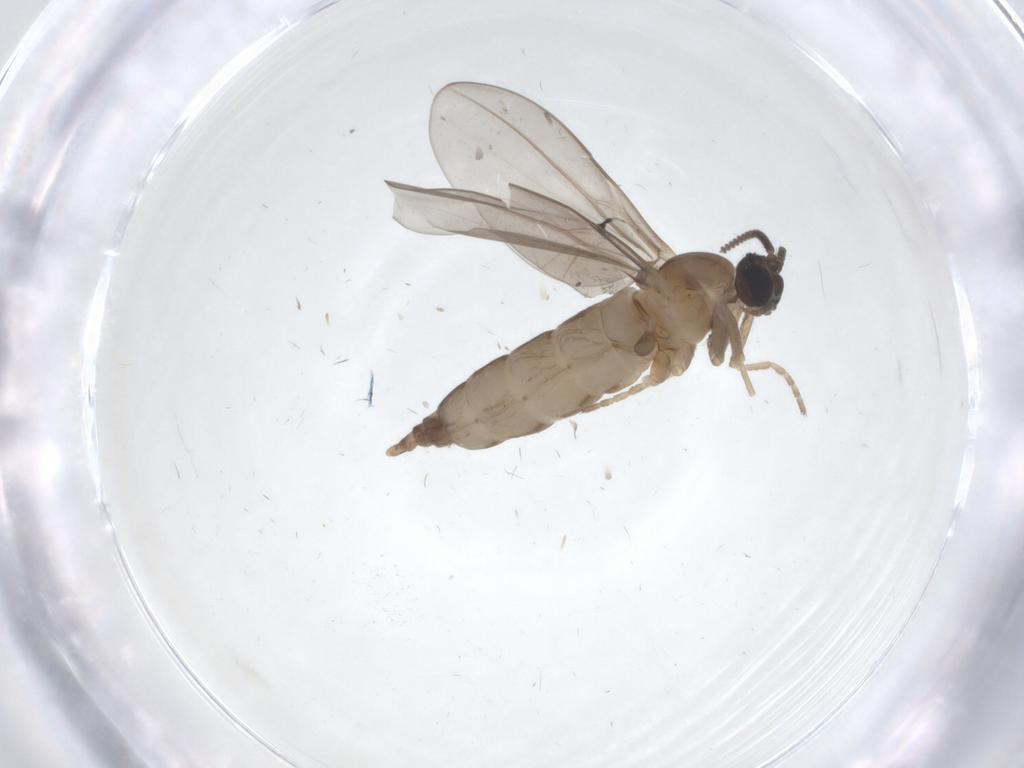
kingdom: Animalia
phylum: Arthropoda
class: Insecta
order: Diptera
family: Cecidomyiidae
